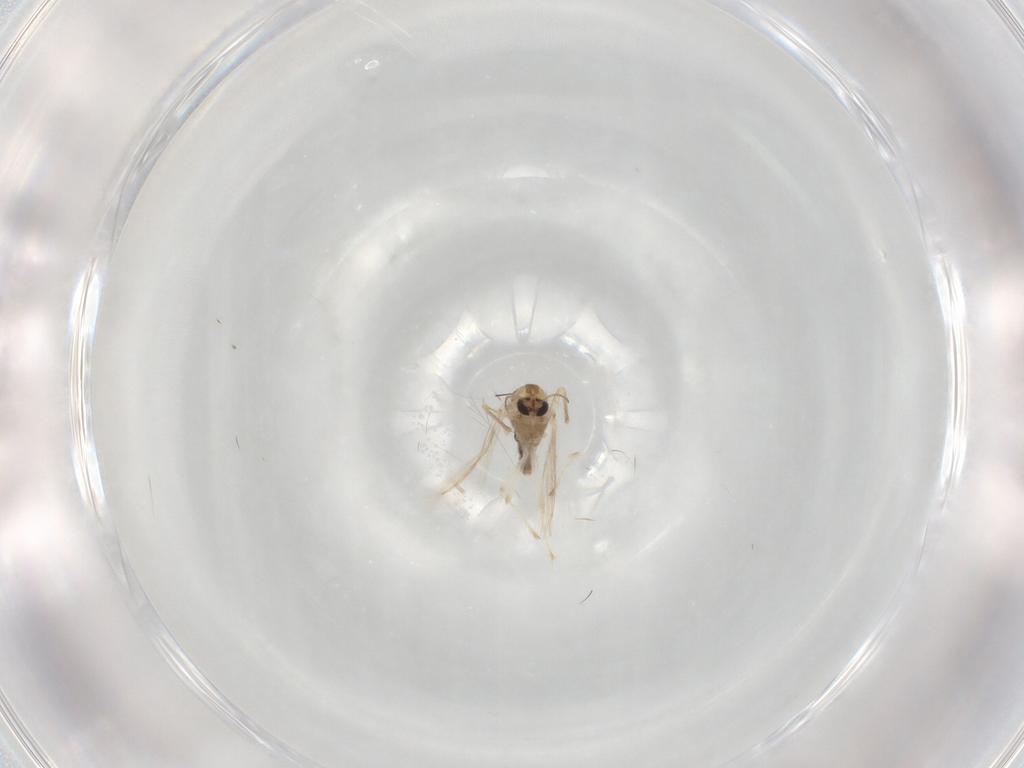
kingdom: Animalia
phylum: Arthropoda
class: Insecta
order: Diptera
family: Chironomidae
